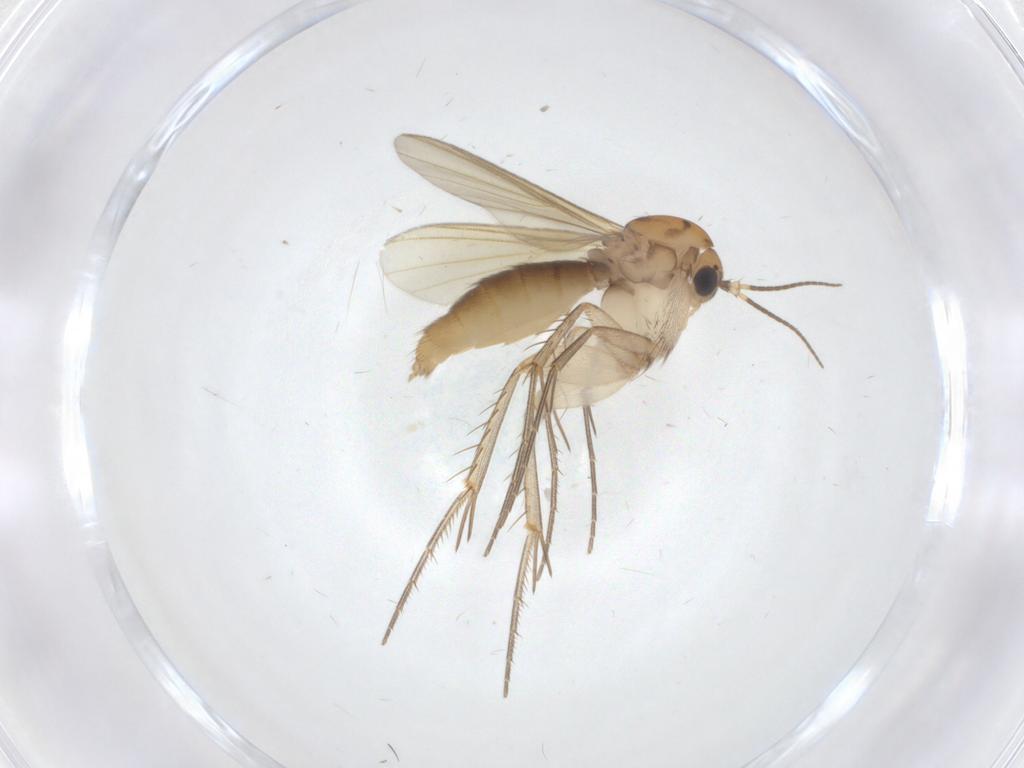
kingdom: Animalia
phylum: Arthropoda
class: Insecta
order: Diptera
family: Mycetophilidae
